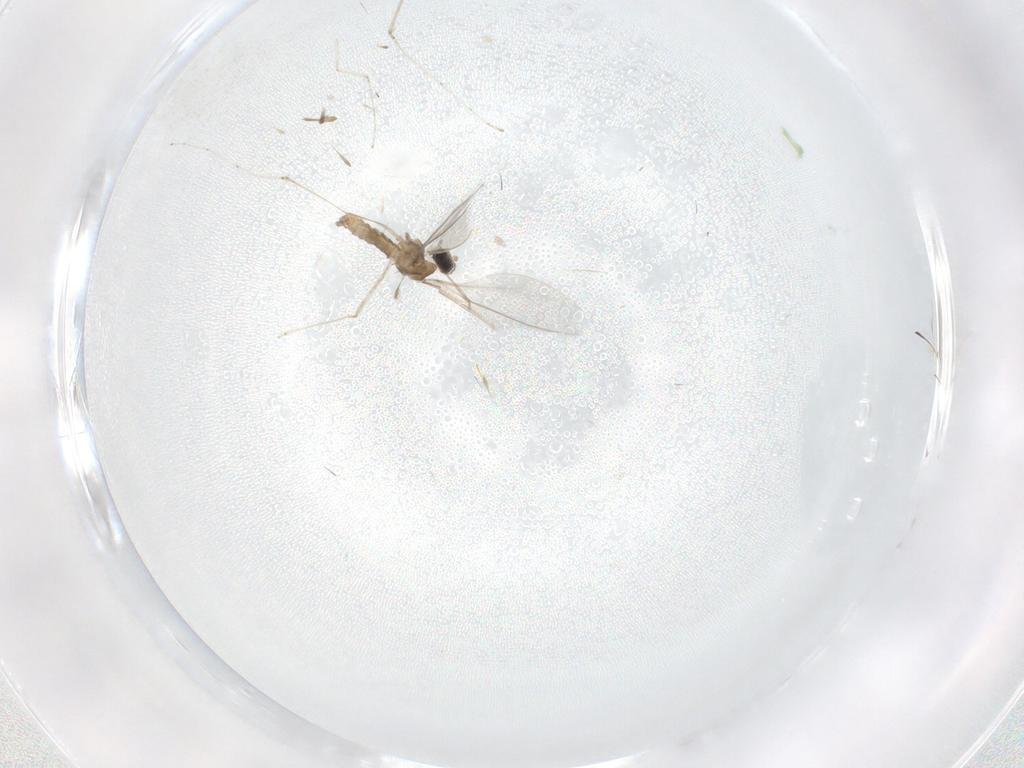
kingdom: Animalia
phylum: Arthropoda
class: Insecta
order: Diptera
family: Cecidomyiidae
